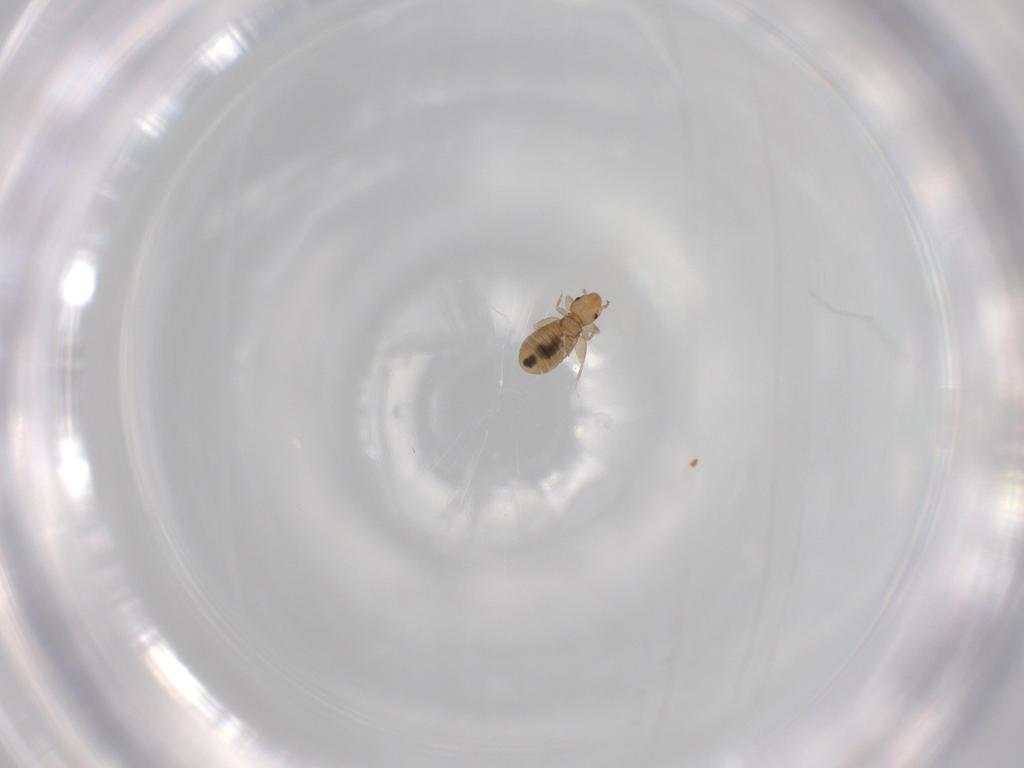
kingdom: Animalia
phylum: Arthropoda
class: Insecta
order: Psocodea
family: Liposcelididae
